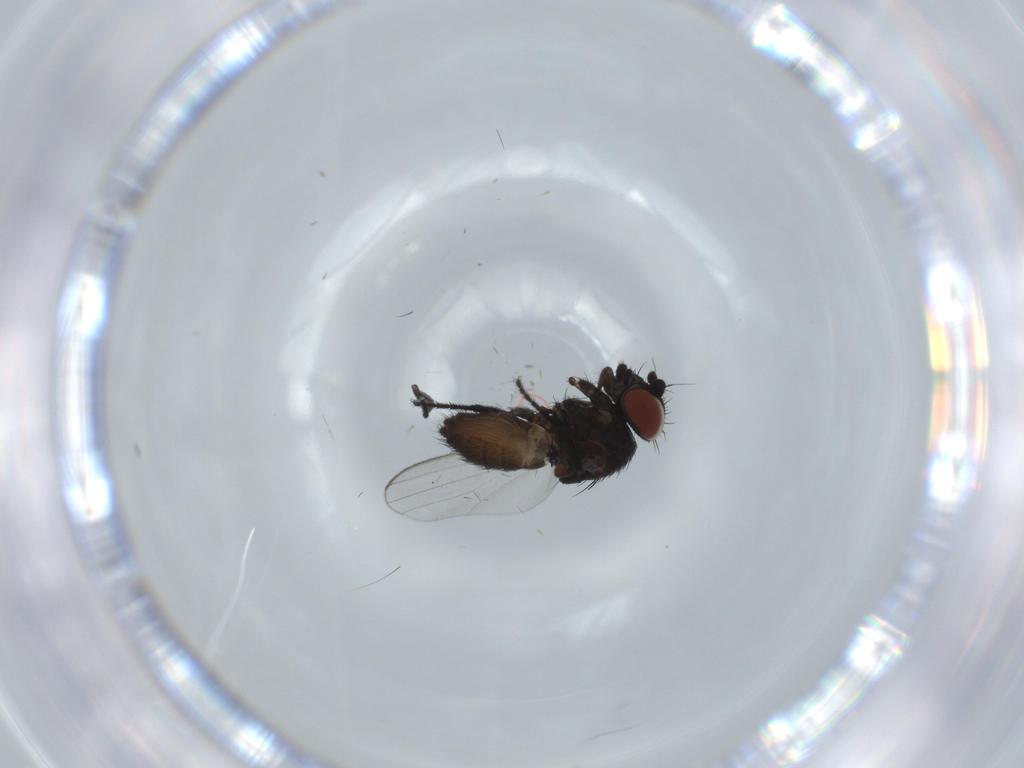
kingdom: Animalia
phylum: Arthropoda
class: Insecta
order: Diptera
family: Milichiidae
